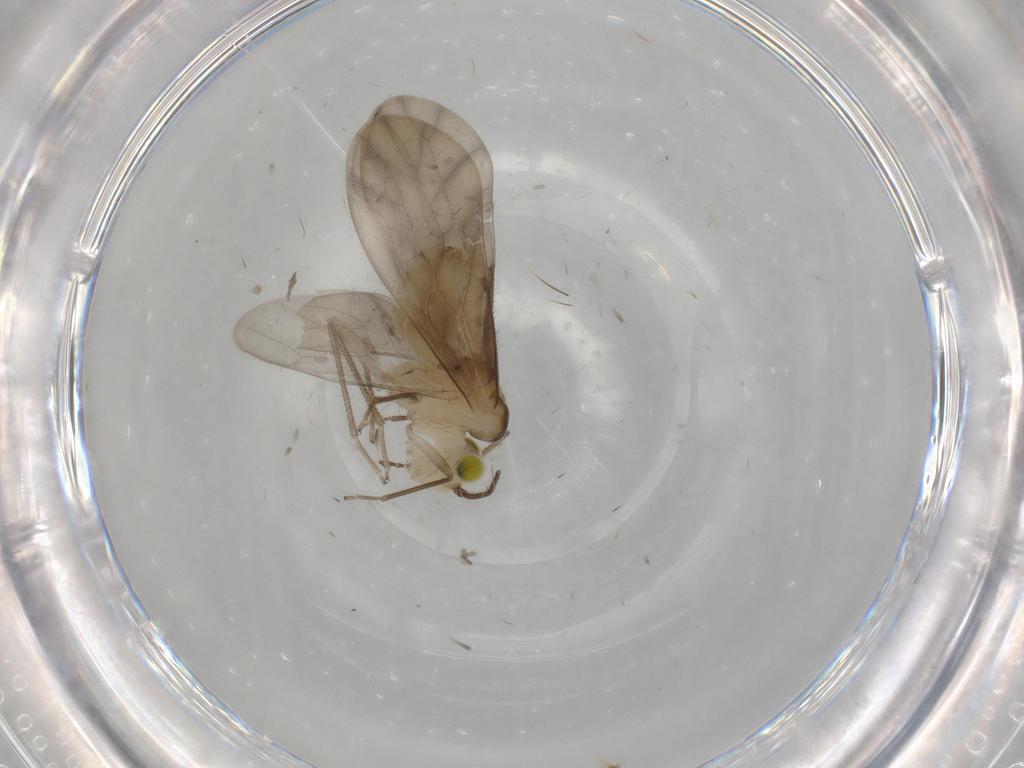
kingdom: Animalia
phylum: Arthropoda
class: Insecta
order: Psocodea
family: Caeciliusidae
